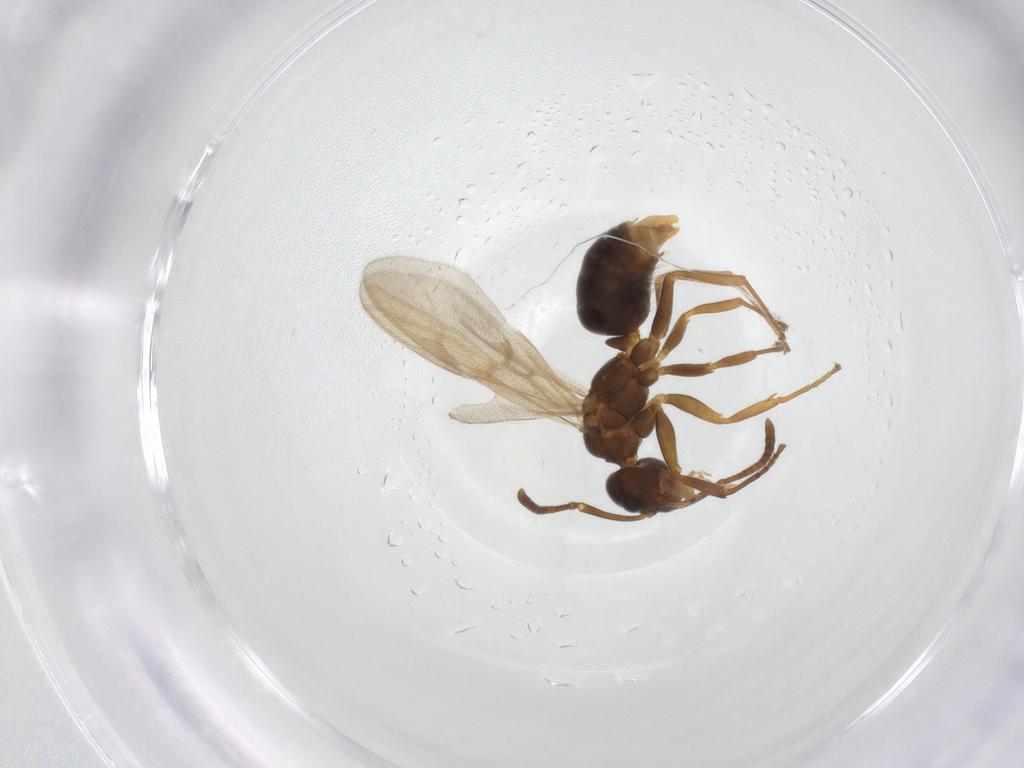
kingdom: Animalia
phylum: Arthropoda
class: Insecta
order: Hymenoptera
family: Formicidae
